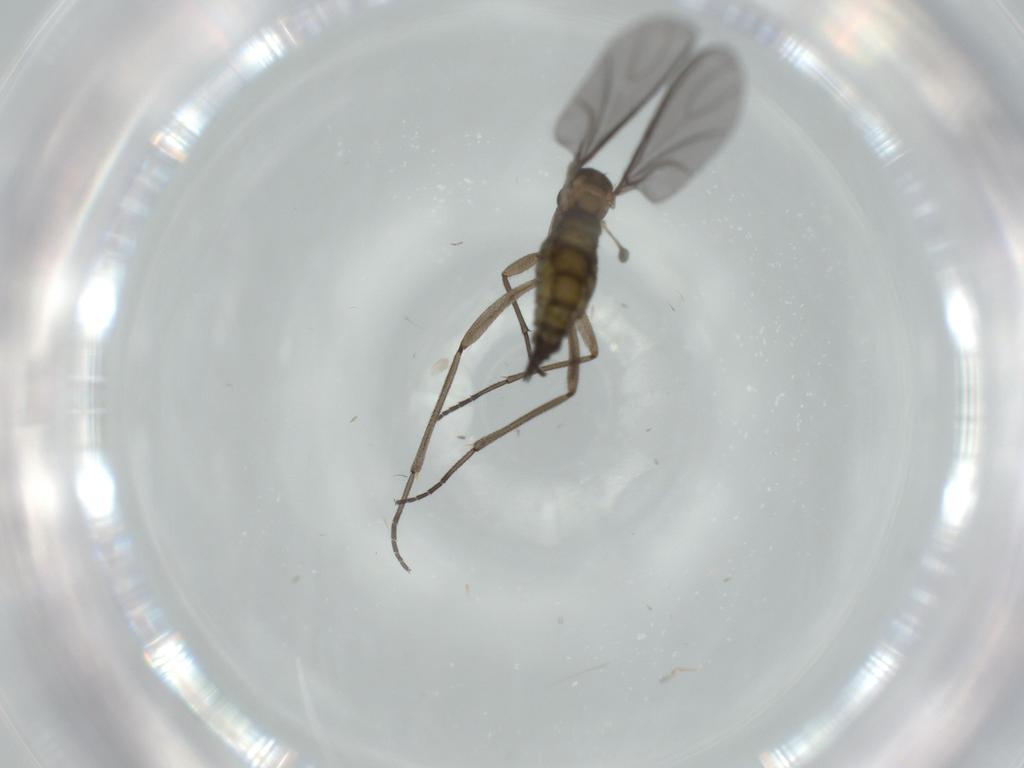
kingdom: Animalia
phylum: Arthropoda
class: Insecta
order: Diptera
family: Sciaridae
